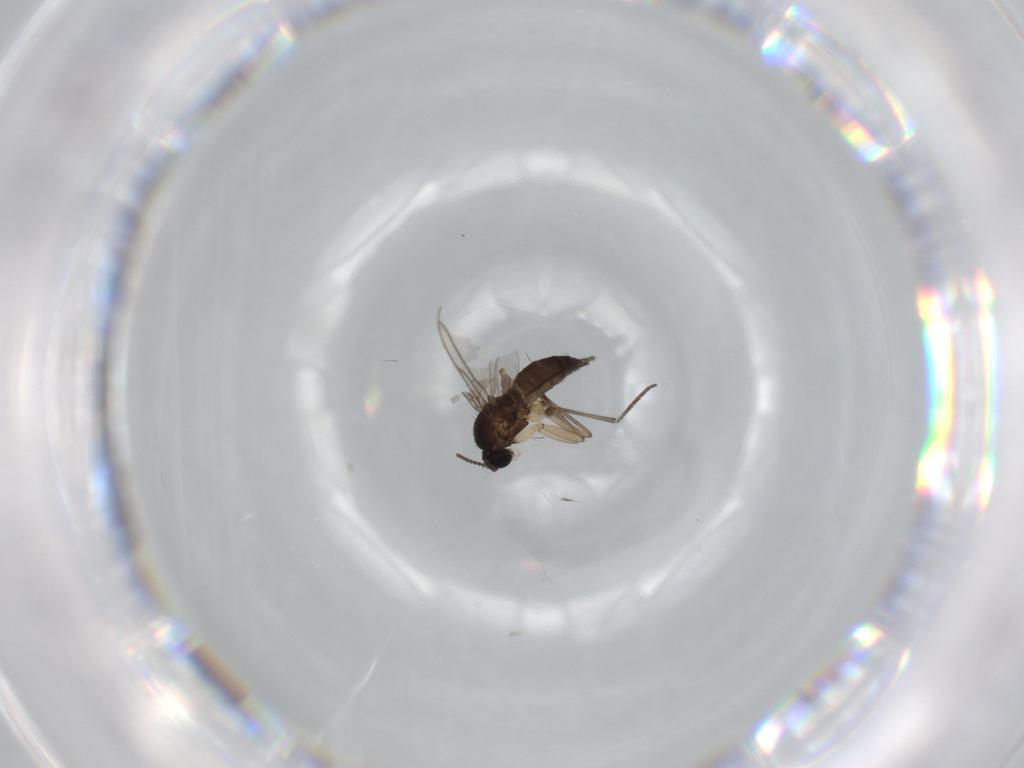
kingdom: Animalia
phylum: Arthropoda
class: Insecta
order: Diptera
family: Sciaridae
